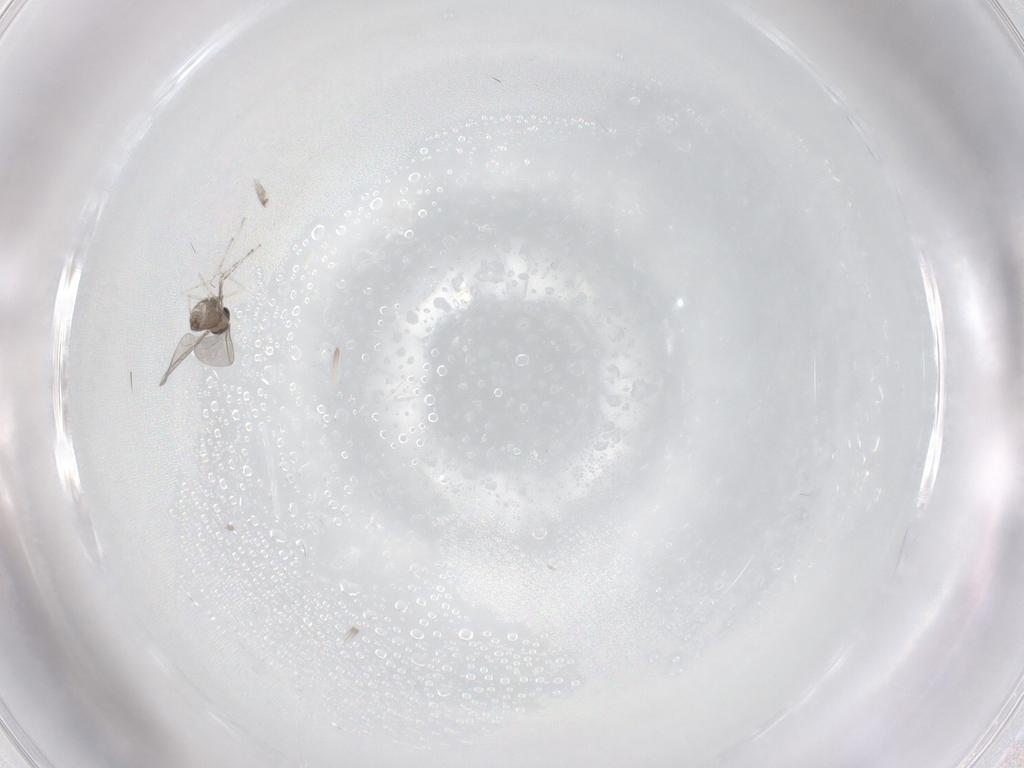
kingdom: Animalia
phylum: Arthropoda
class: Insecta
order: Diptera
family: Cecidomyiidae
